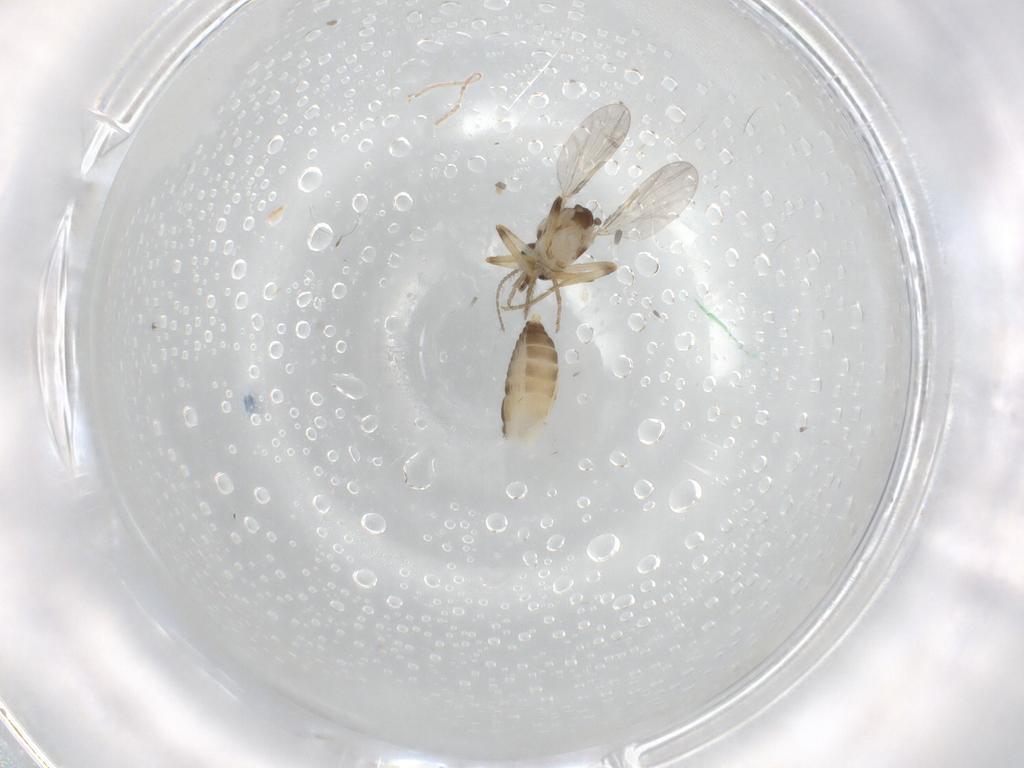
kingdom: Animalia
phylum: Arthropoda
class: Insecta
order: Diptera
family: Ceratopogonidae
